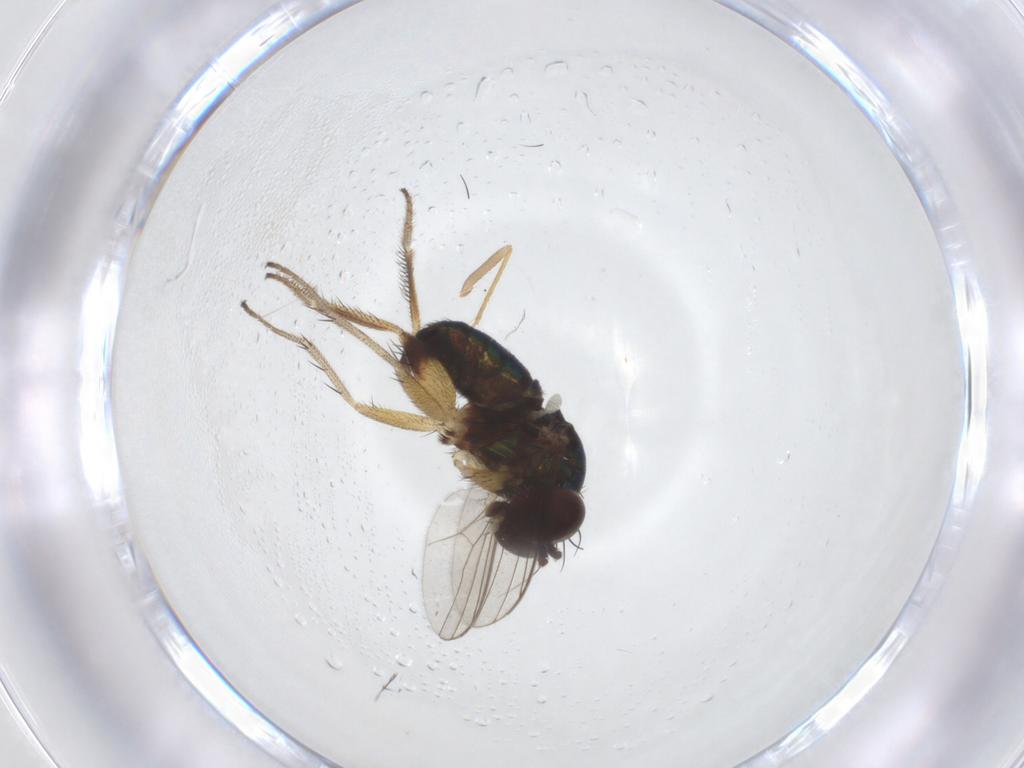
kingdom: Animalia
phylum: Arthropoda
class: Insecta
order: Diptera
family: Dolichopodidae
